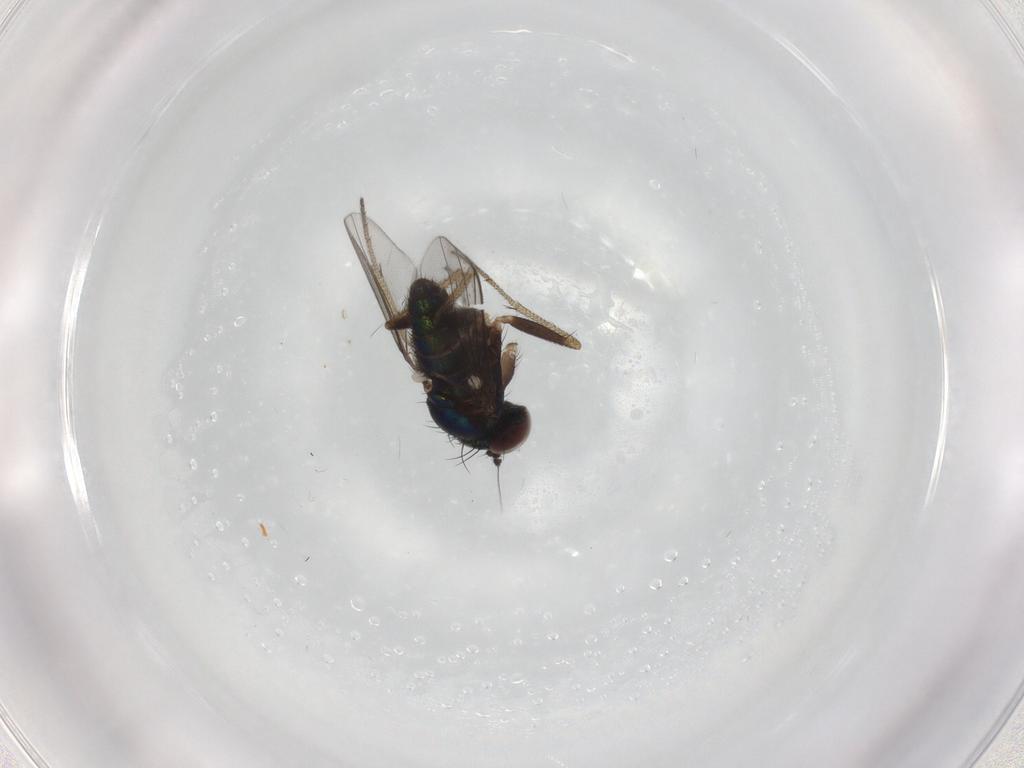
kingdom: Animalia
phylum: Arthropoda
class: Insecta
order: Diptera
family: Dolichopodidae
